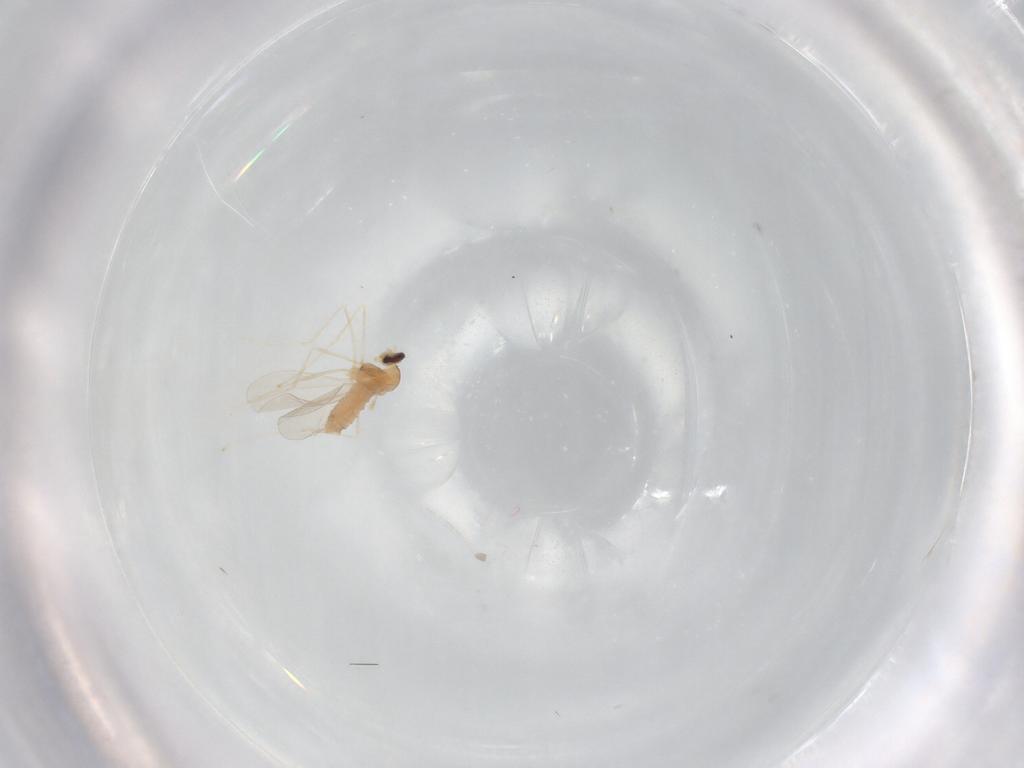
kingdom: Animalia
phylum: Arthropoda
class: Insecta
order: Diptera
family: Cecidomyiidae
